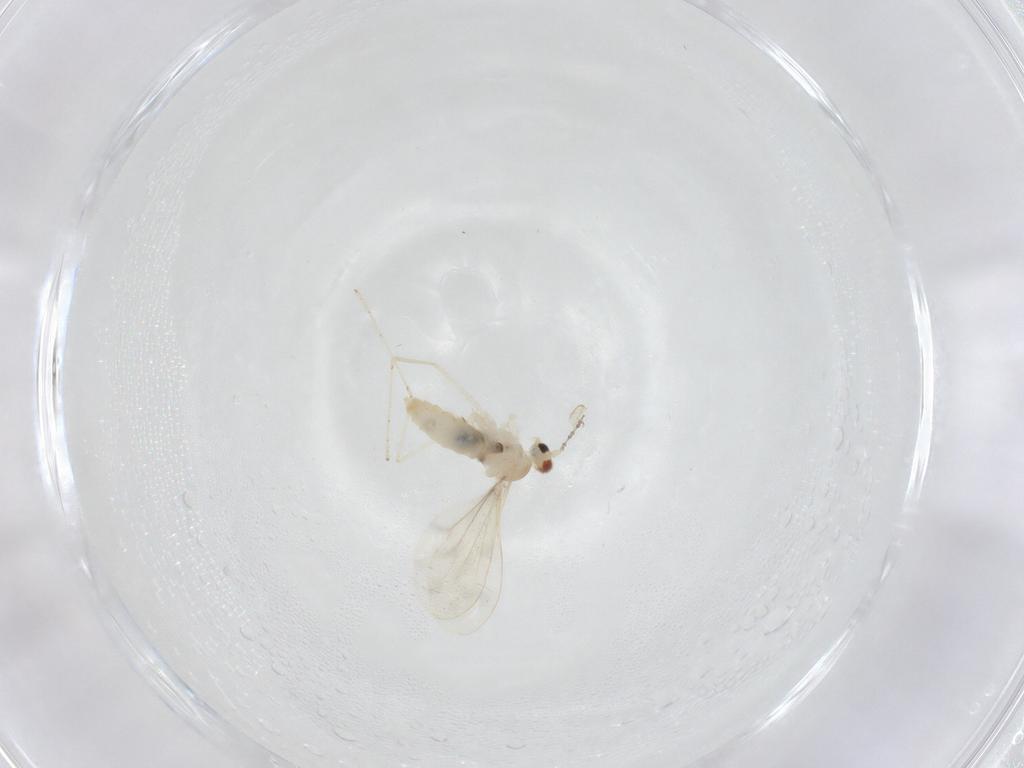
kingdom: Animalia
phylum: Arthropoda
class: Insecta
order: Diptera
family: Cecidomyiidae
